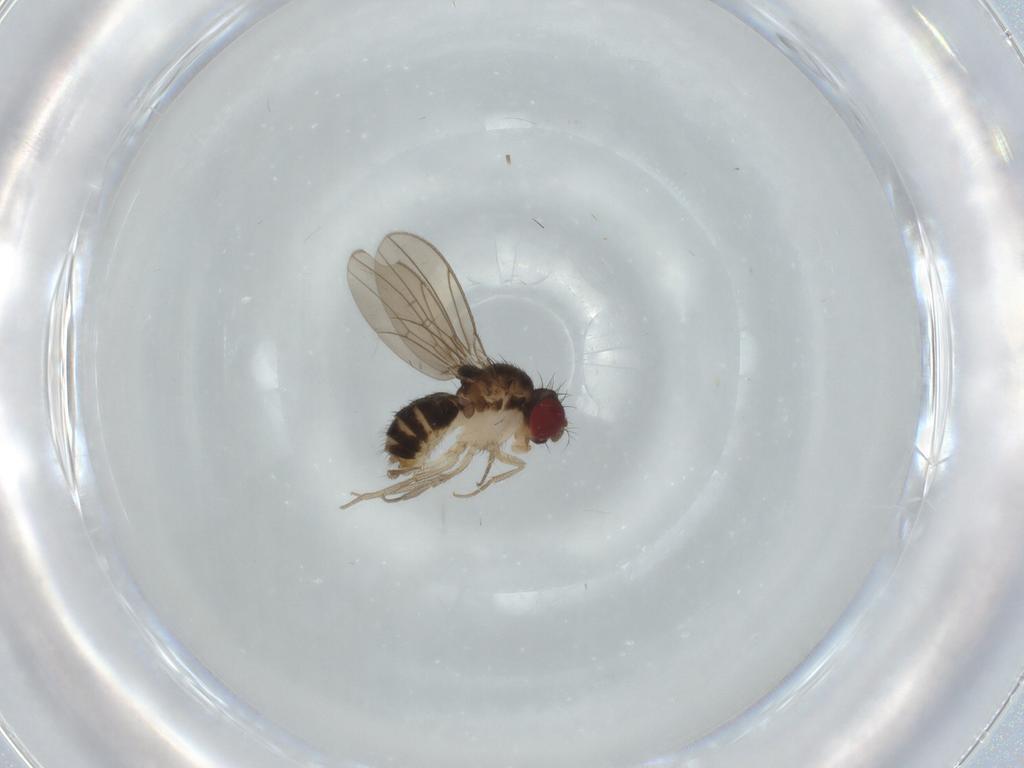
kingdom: Animalia
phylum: Arthropoda
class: Insecta
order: Diptera
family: Drosophilidae
